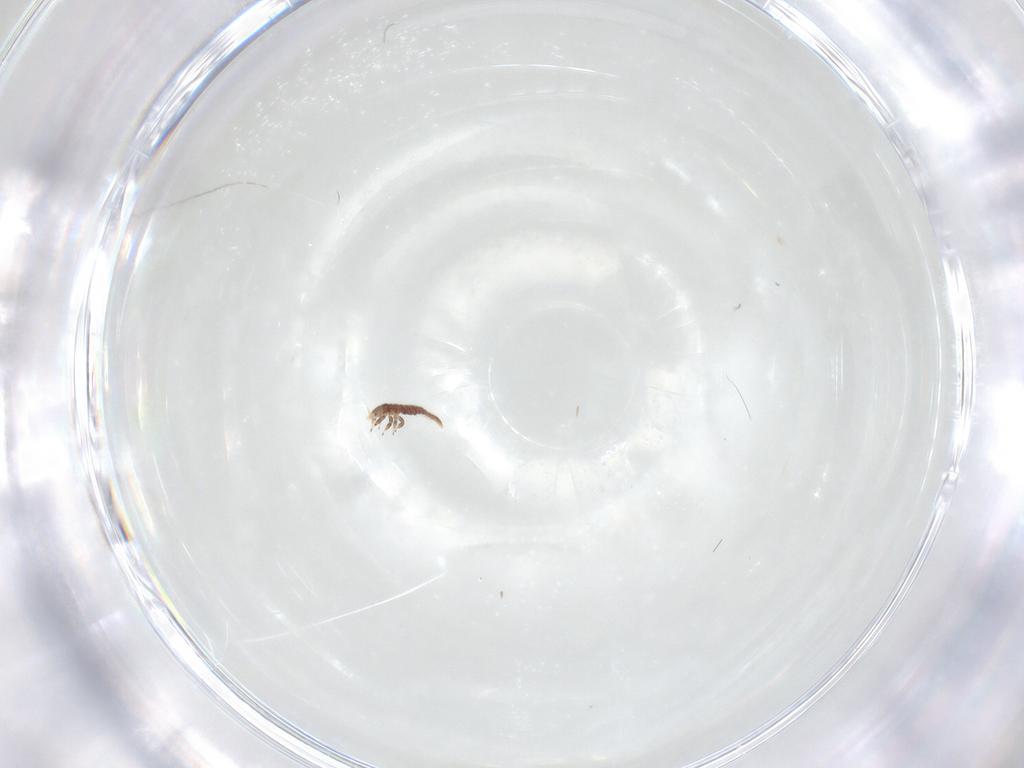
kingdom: Animalia
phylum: Arthropoda
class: Insecta
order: Neuroptera
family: Mantispidae
